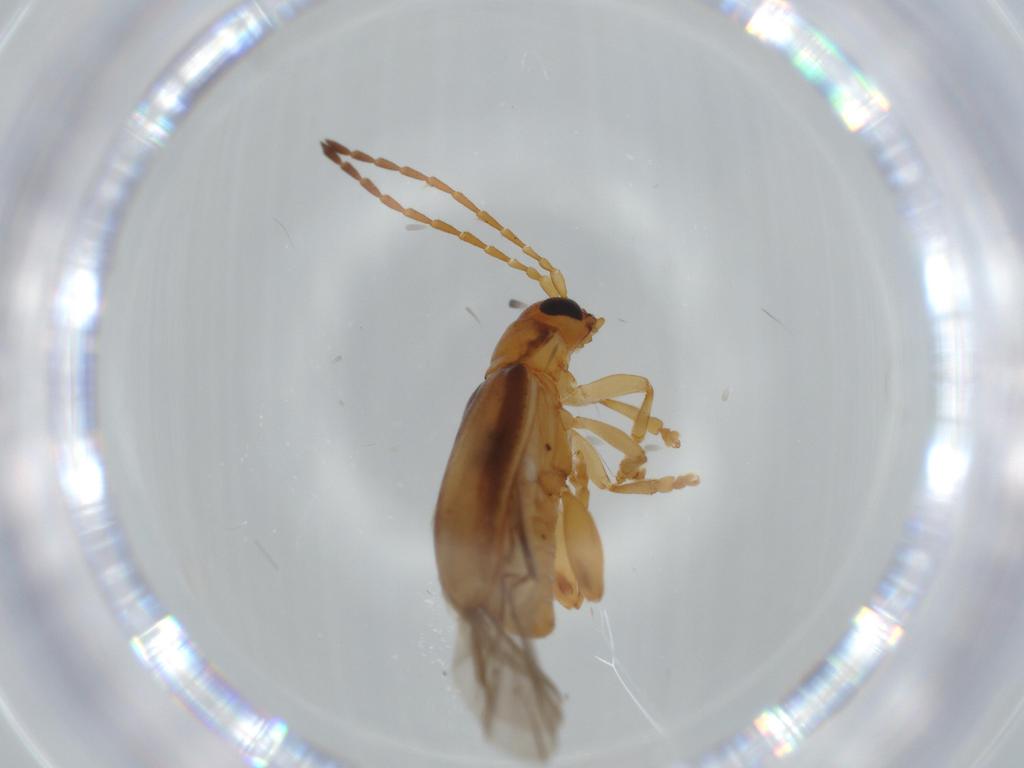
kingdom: Animalia
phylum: Arthropoda
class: Insecta
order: Coleoptera
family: Lampyridae
